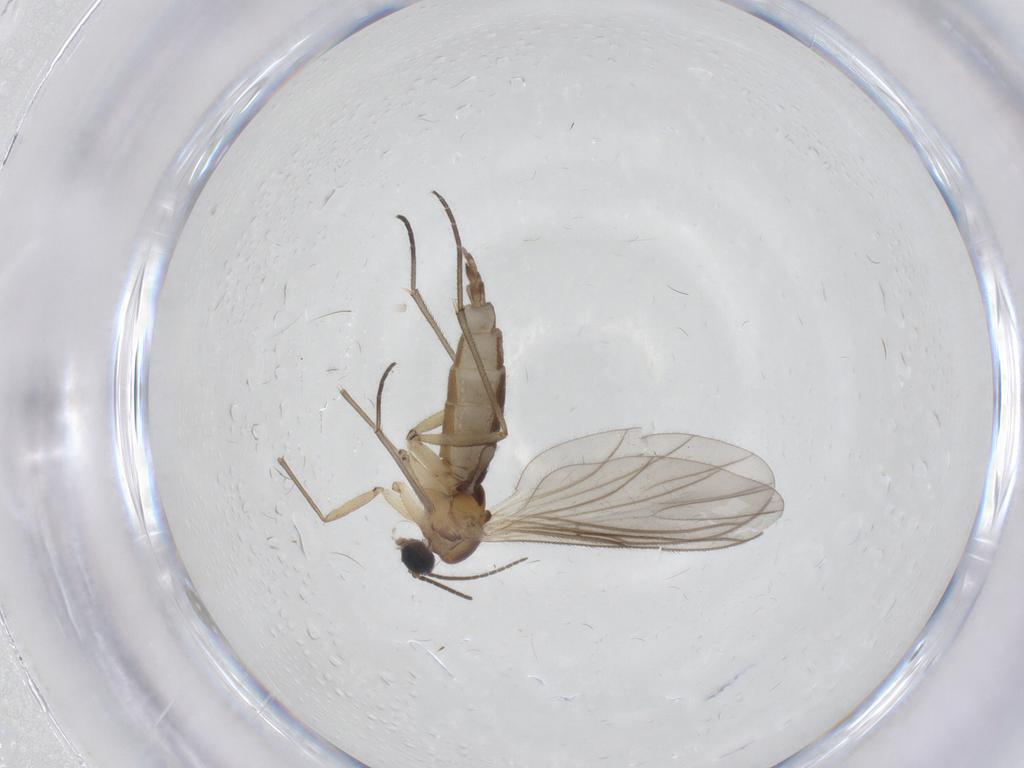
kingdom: Animalia
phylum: Arthropoda
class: Insecta
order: Diptera
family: Sciaridae
